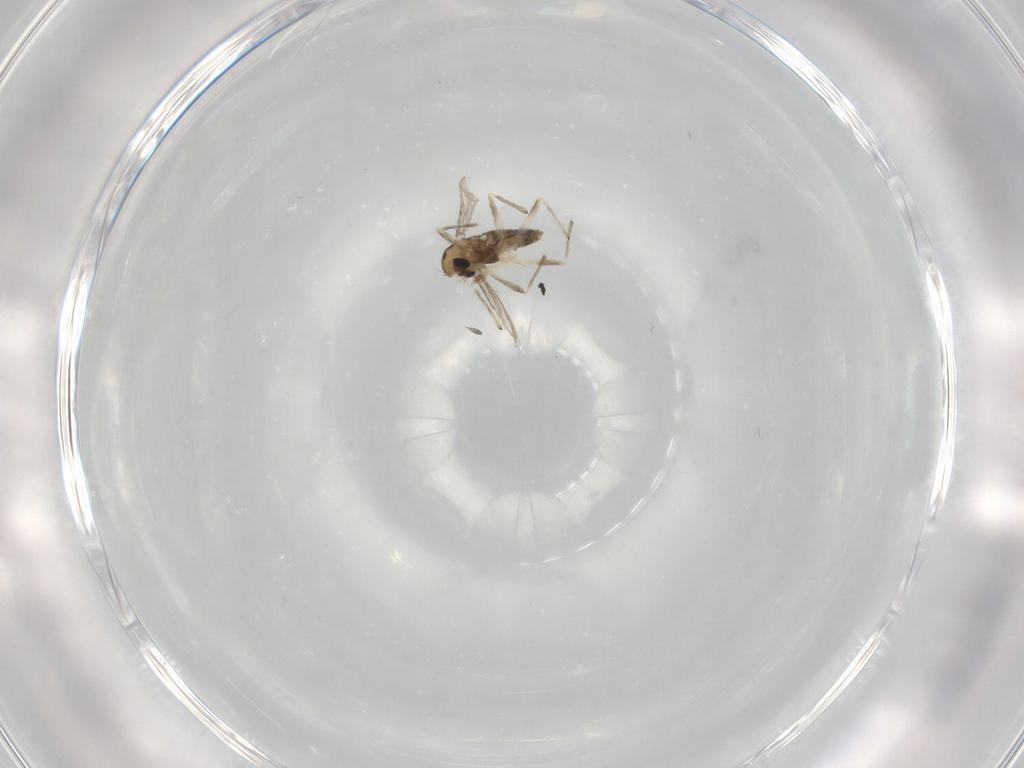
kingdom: Animalia
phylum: Arthropoda
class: Insecta
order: Diptera
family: Chironomidae
